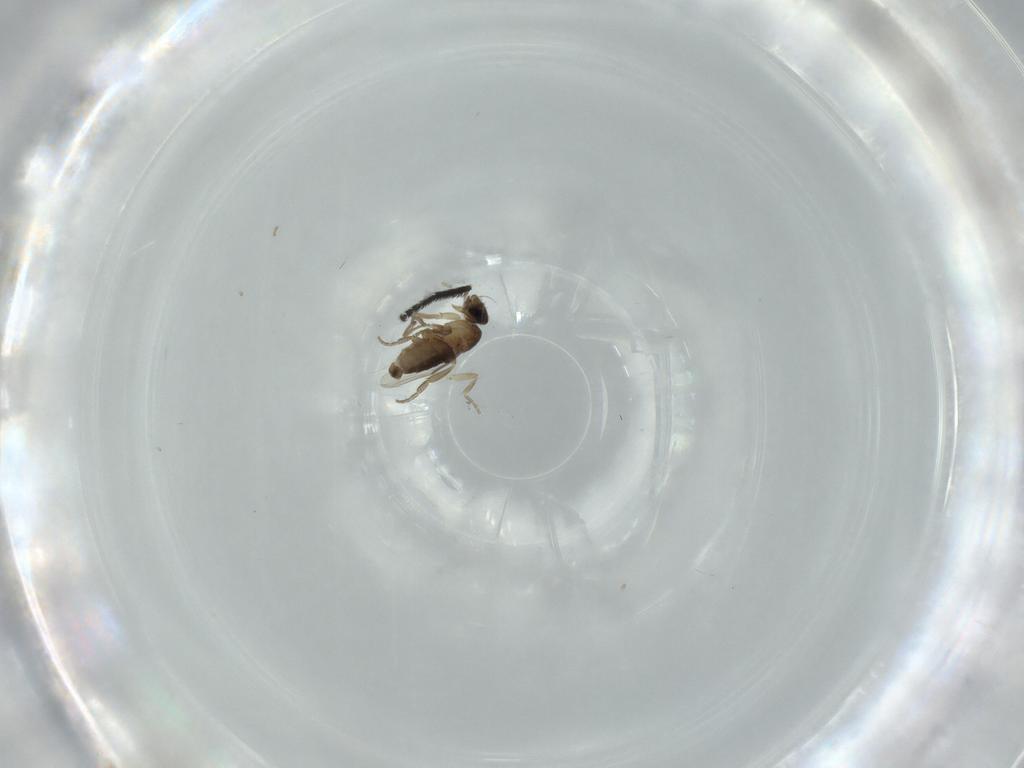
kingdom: Animalia
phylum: Arthropoda
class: Insecta
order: Diptera
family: Phoridae
